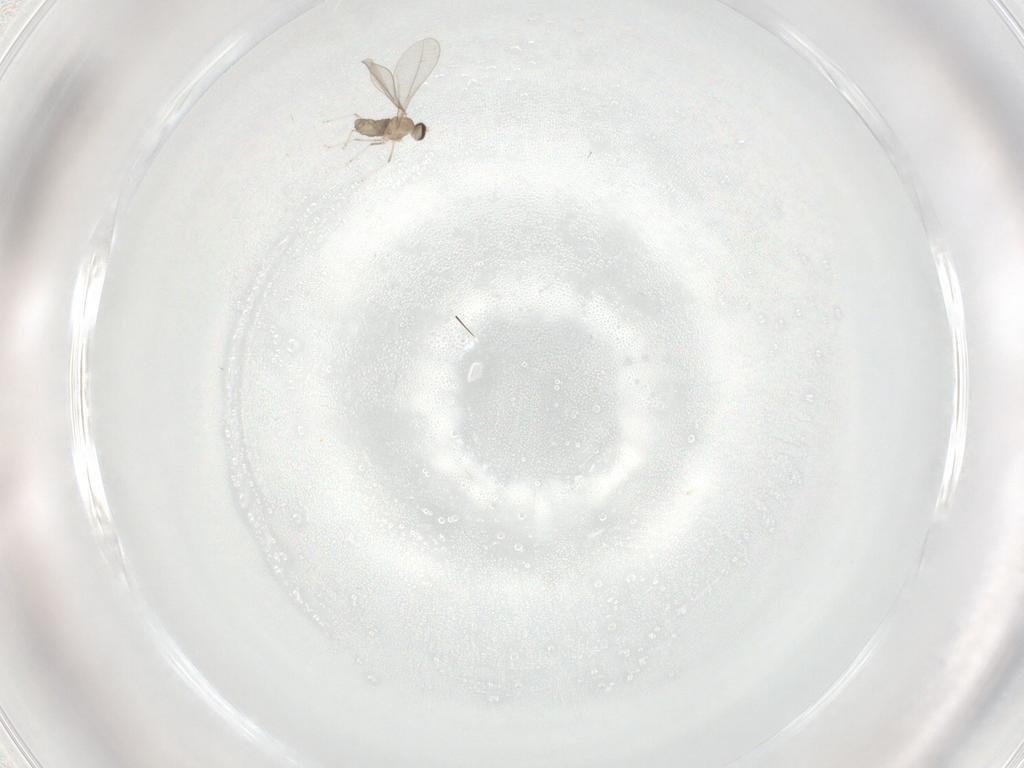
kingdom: Animalia
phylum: Arthropoda
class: Insecta
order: Diptera
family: Cecidomyiidae
